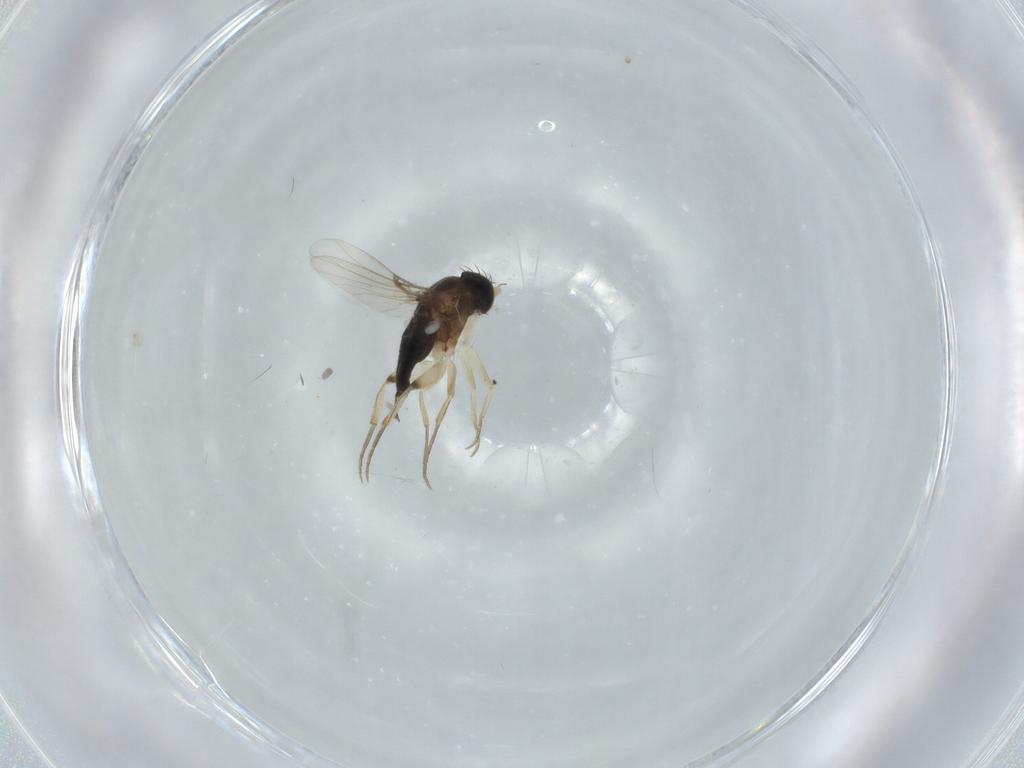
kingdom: Animalia
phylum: Arthropoda
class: Insecta
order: Diptera
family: Phoridae
